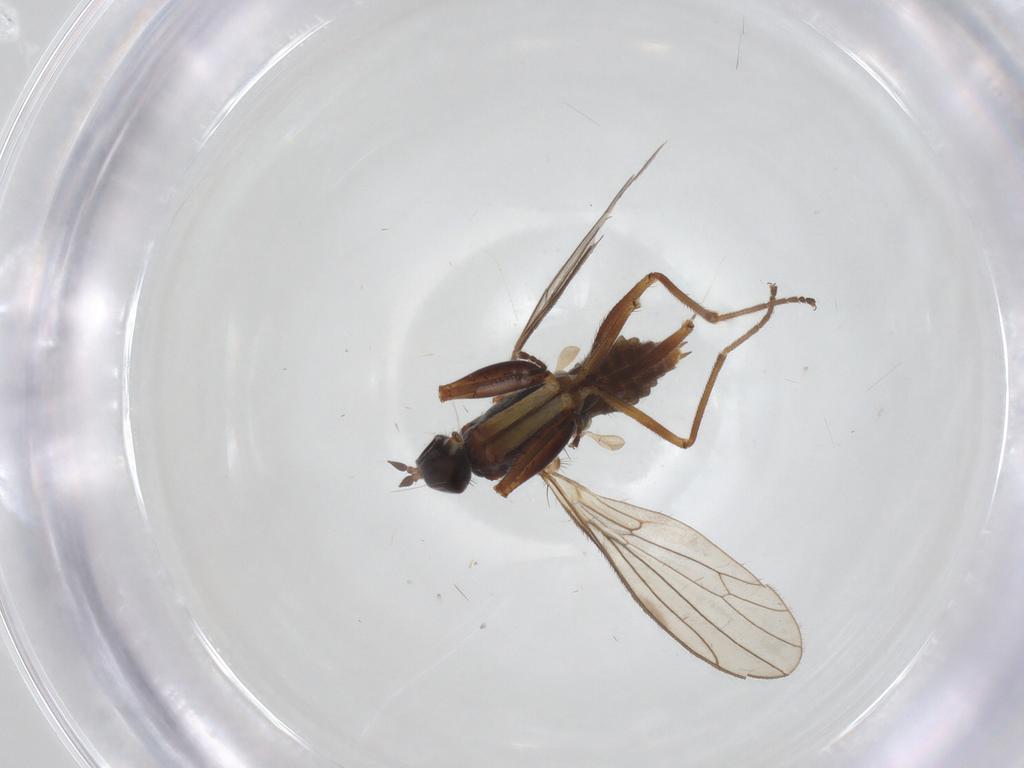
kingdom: Animalia
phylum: Arthropoda
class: Insecta
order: Diptera
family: Empididae
